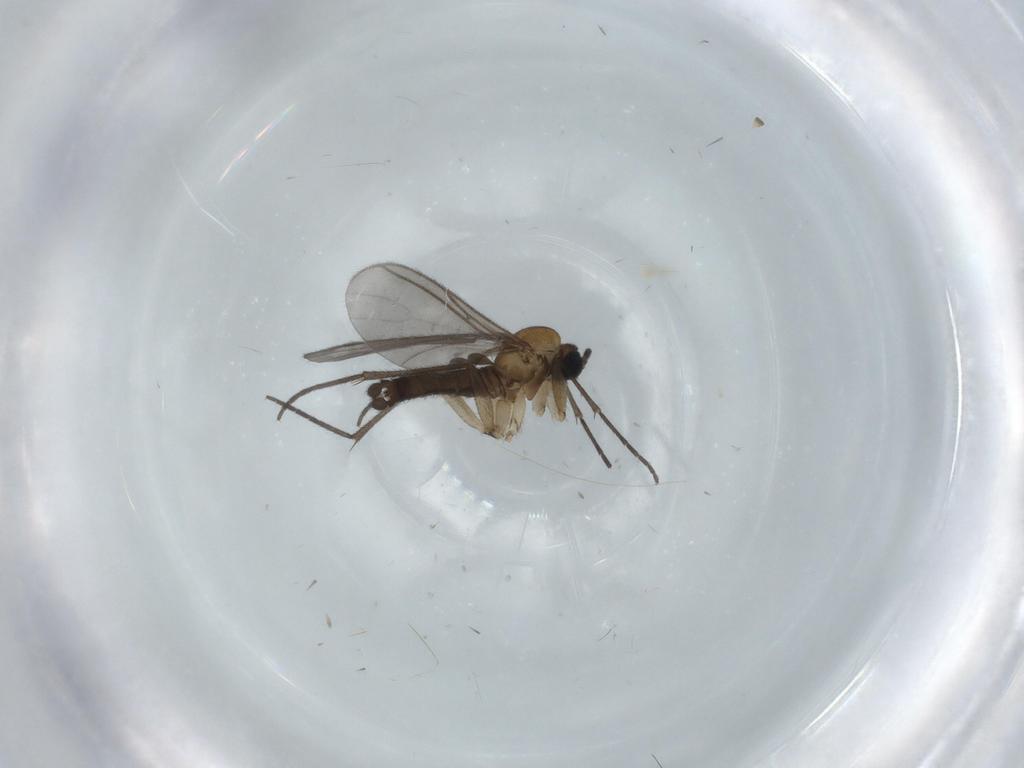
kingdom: Animalia
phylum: Arthropoda
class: Insecta
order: Diptera
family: Sciaridae
